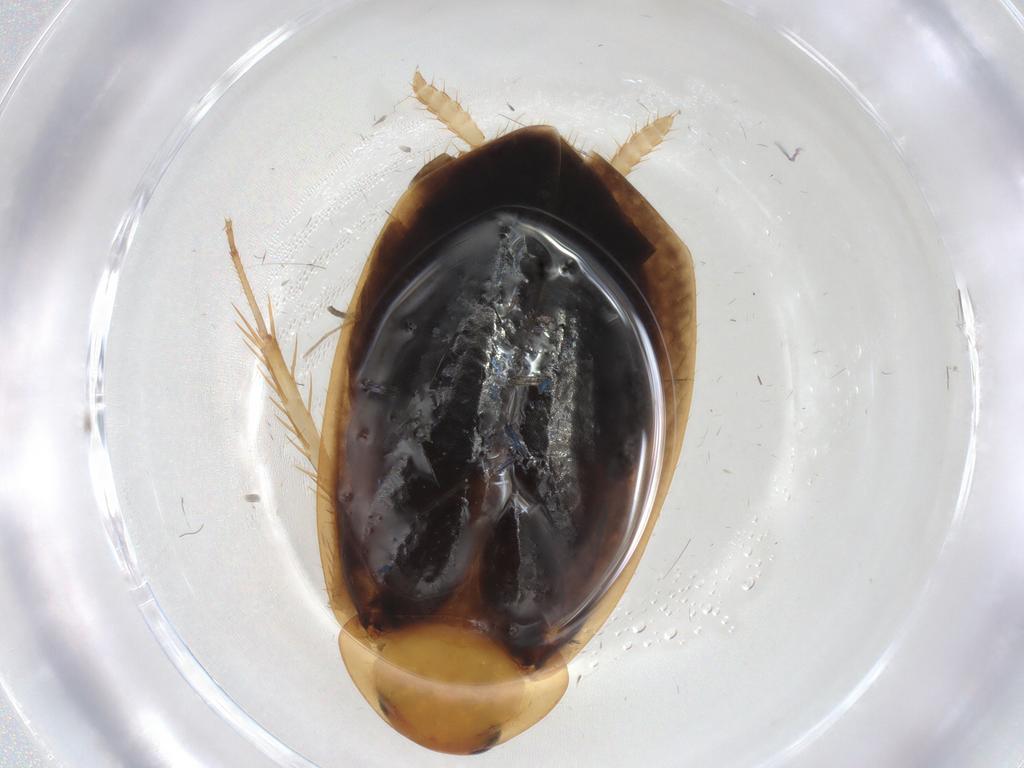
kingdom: Animalia
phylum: Arthropoda
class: Insecta
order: Blattodea
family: Tryonicidae
